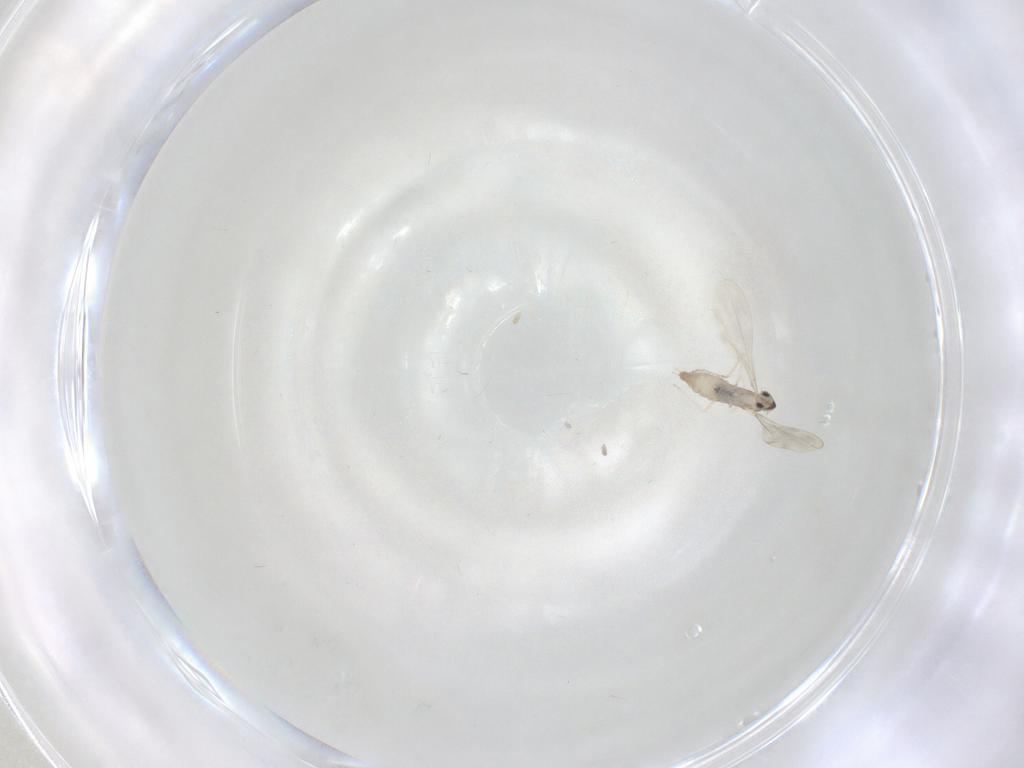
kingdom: Animalia
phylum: Arthropoda
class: Insecta
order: Diptera
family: Cecidomyiidae
